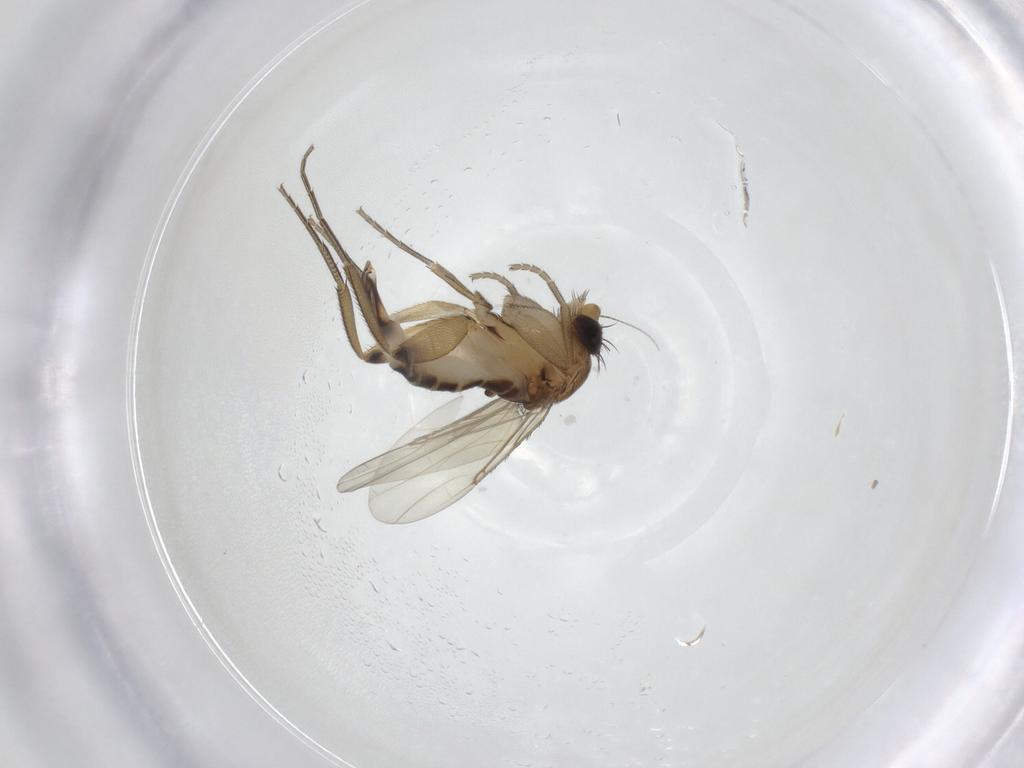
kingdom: Animalia
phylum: Arthropoda
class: Insecta
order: Diptera
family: Phoridae
